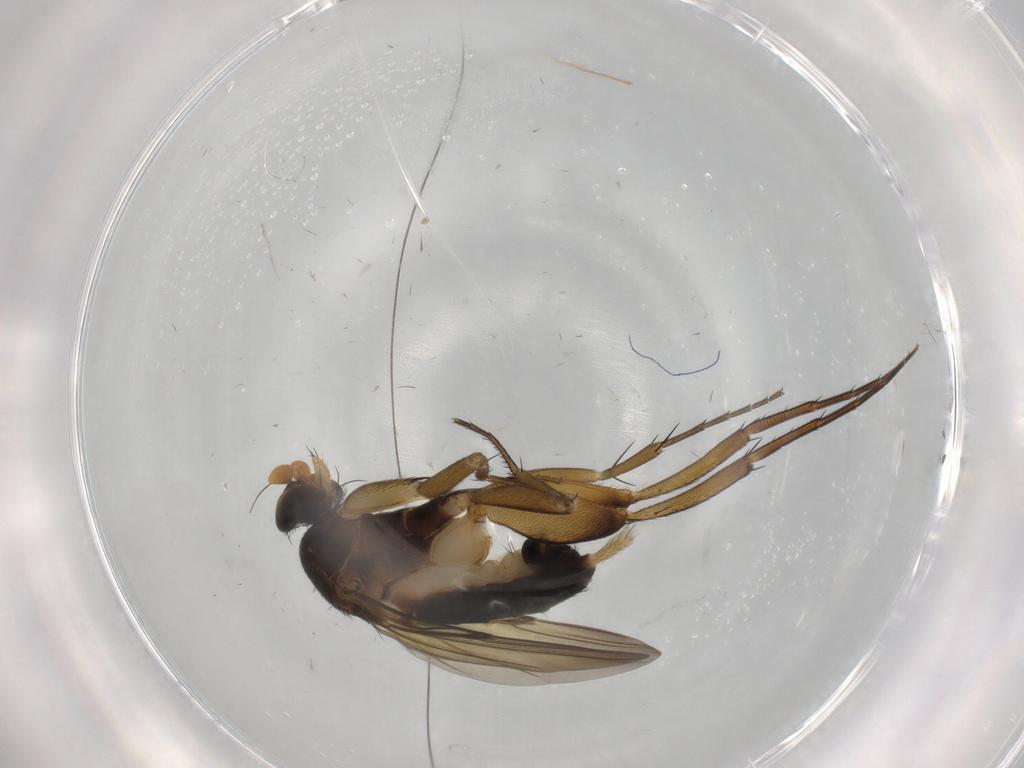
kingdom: Animalia
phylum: Arthropoda
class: Insecta
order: Diptera
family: Phoridae
